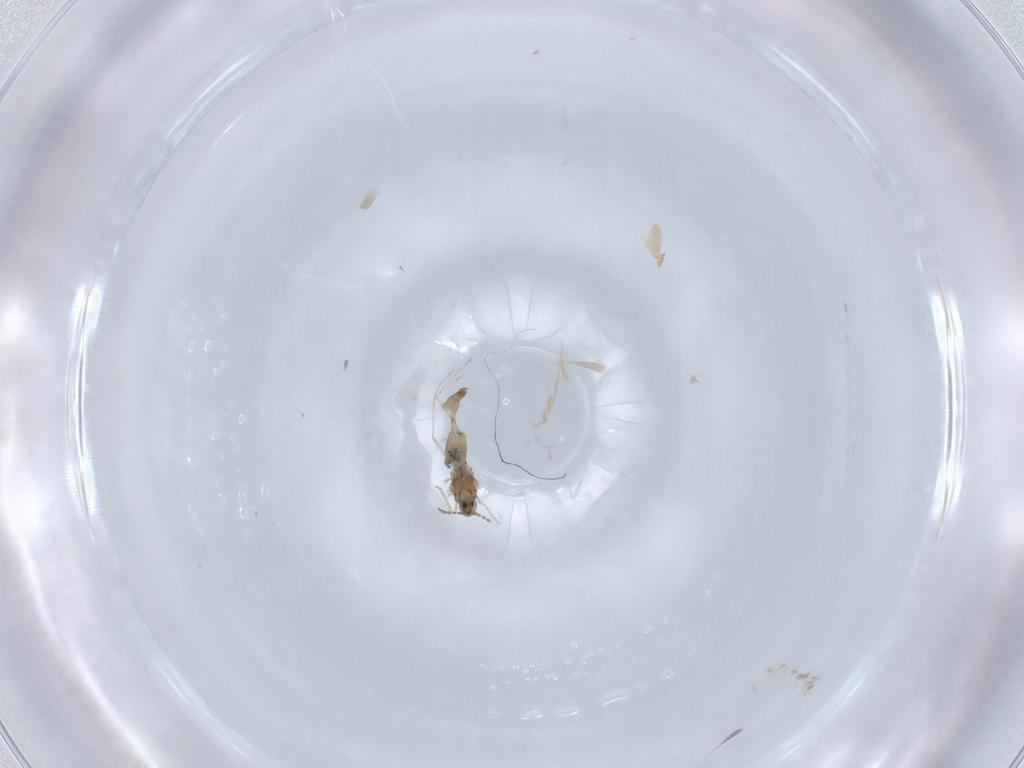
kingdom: Animalia
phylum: Arthropoda
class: Insecta
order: Diptera
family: Cecidomyiidae
